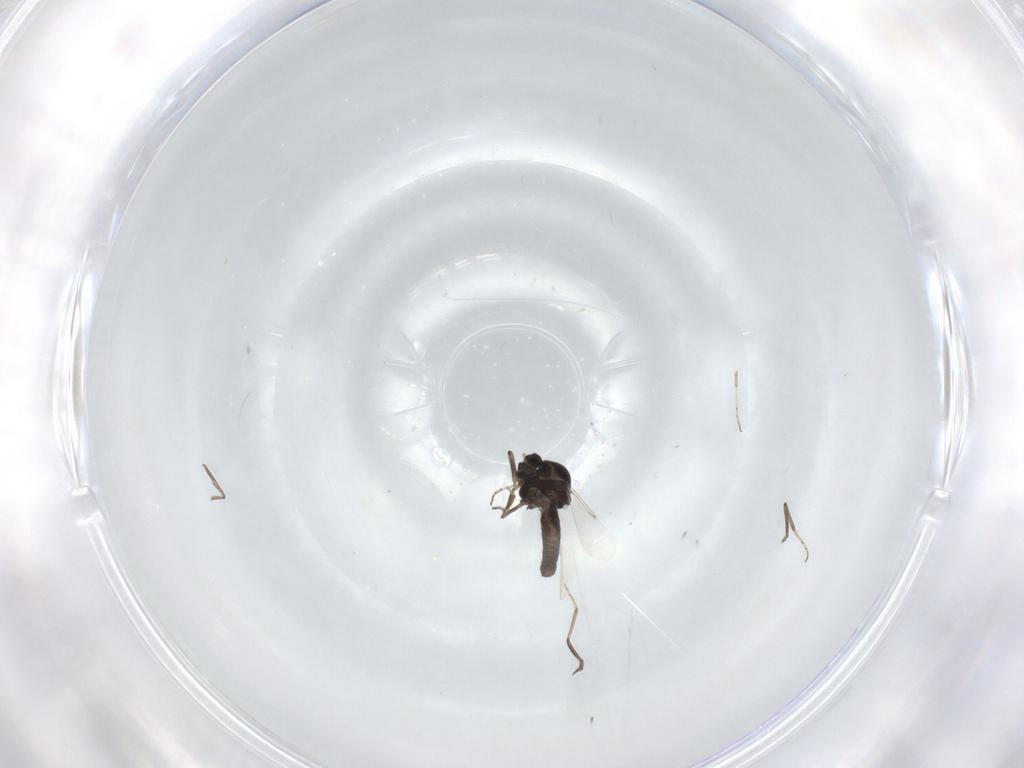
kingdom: Animalia
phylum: Arthropoda
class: Insecta
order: Diptera
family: Ceratopogonidae
